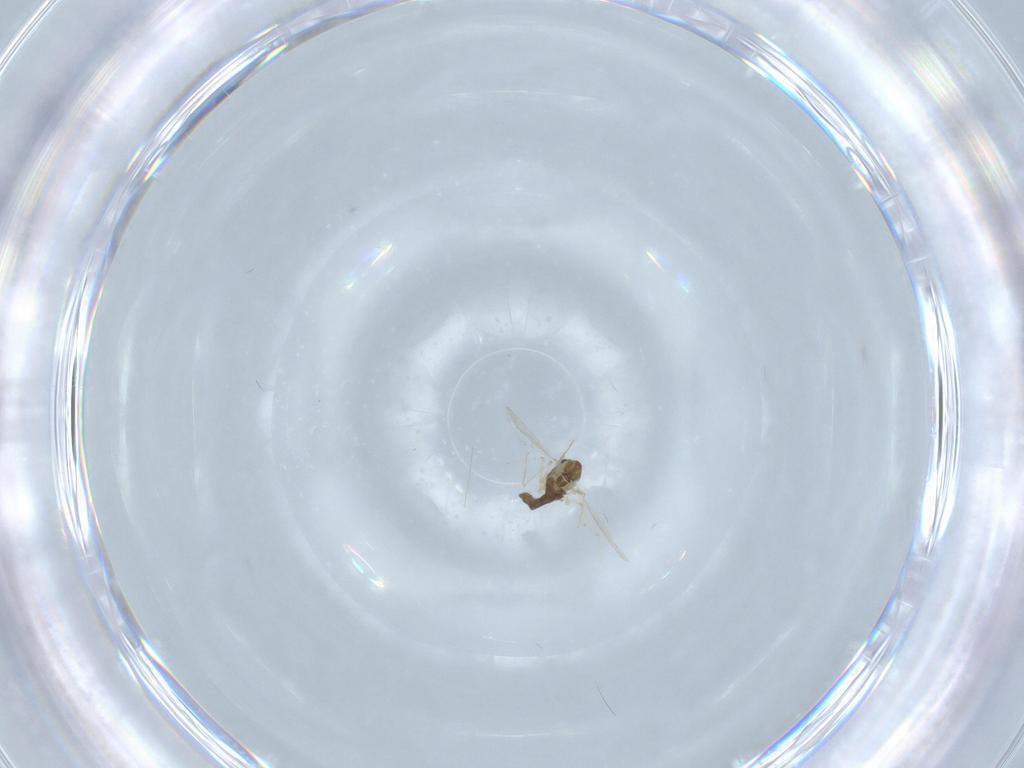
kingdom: Animalia
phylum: Arthropoda
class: Insecta
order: Diptera
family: Chironomidae
